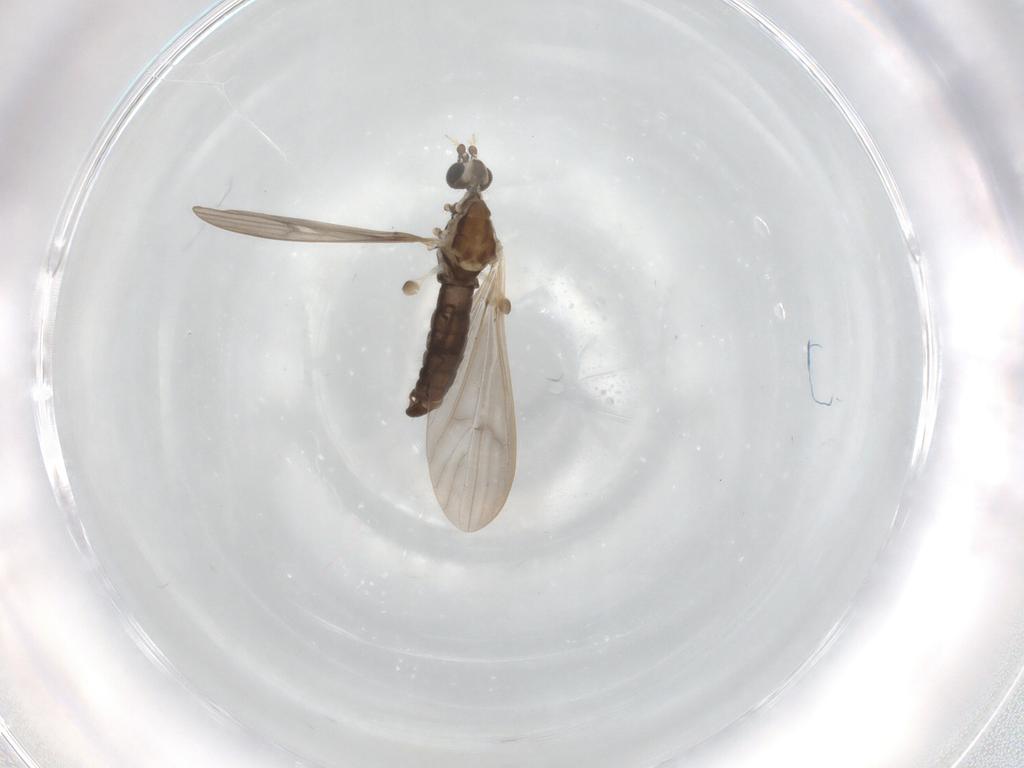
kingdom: Animalia
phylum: Arthropoda
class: Insecta
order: Diptera
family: Limoniidae
